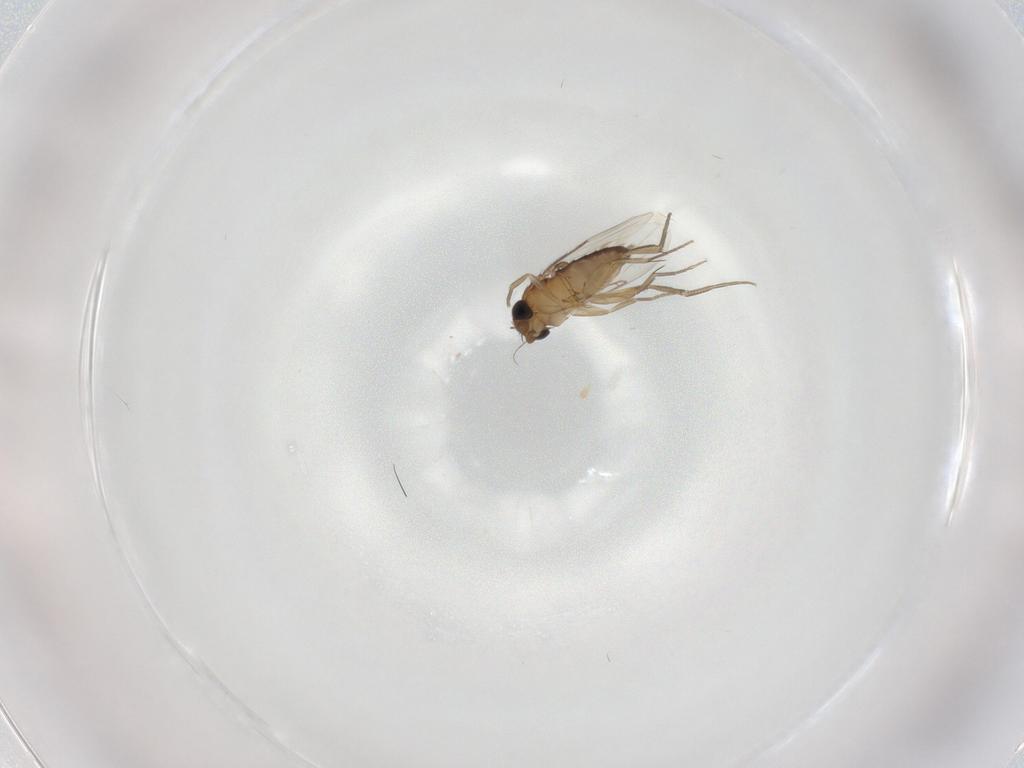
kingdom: Animalia
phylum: Arthropoda
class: Insecta
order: Diptera
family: Phoridae
